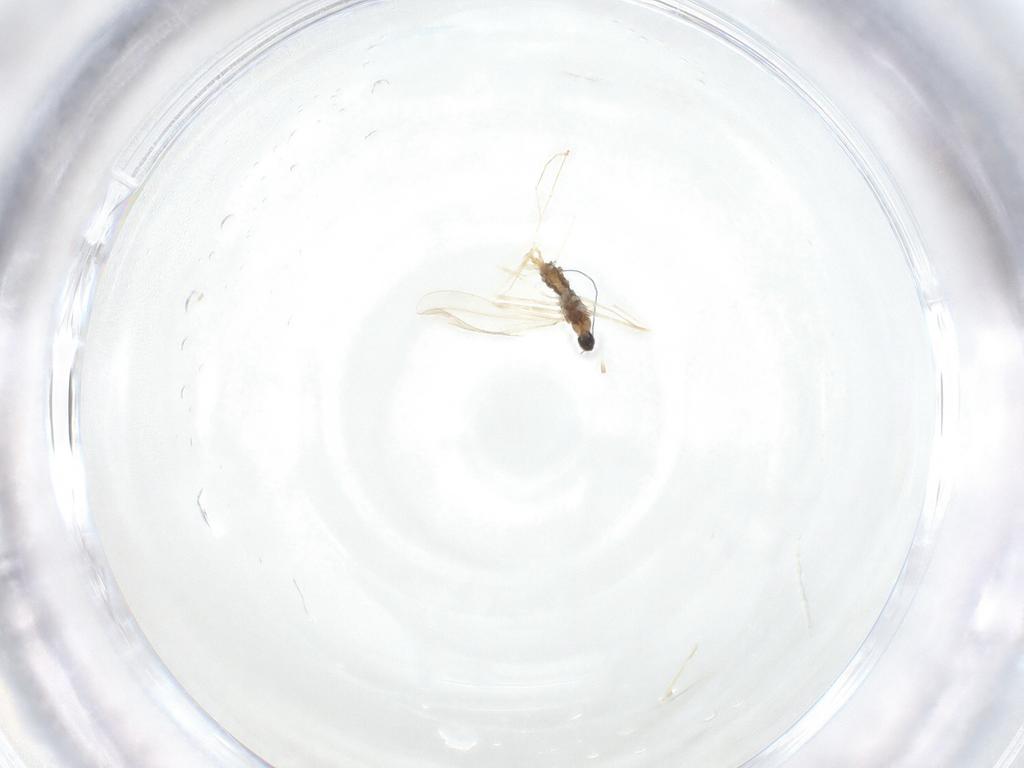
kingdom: Animalia
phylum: Arthropoda
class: Insecta
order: Diptera
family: Cecidomyiidae
